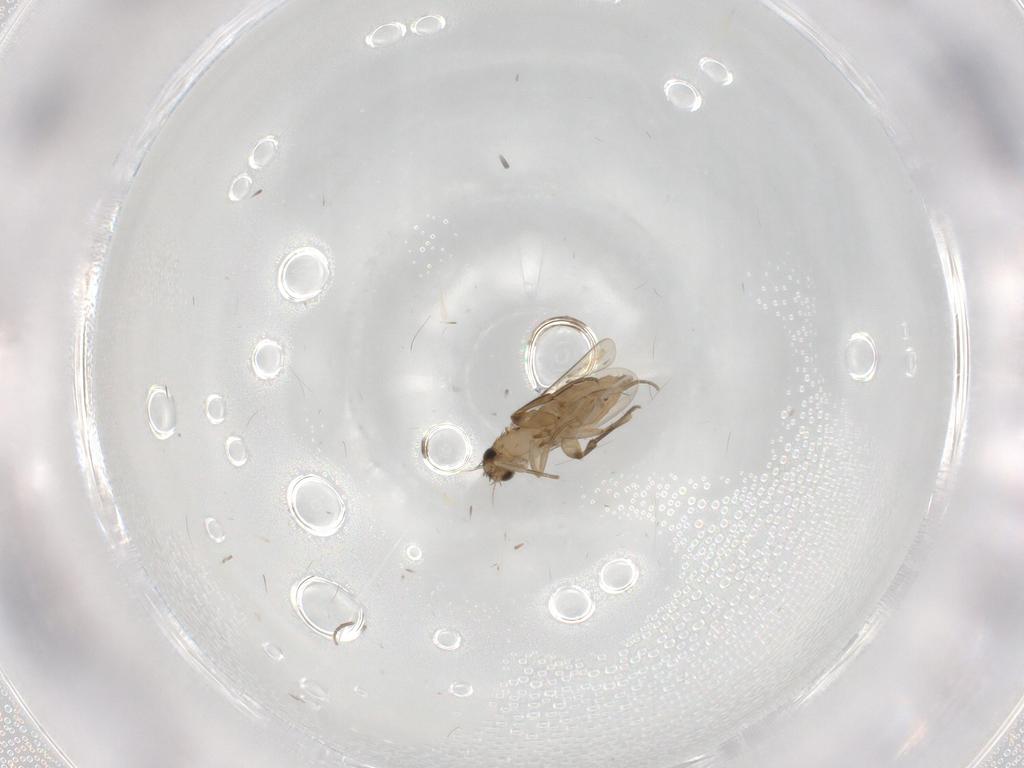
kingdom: Animalia
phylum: Arthropoda
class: Insecta
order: Diptera
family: Phoridae
